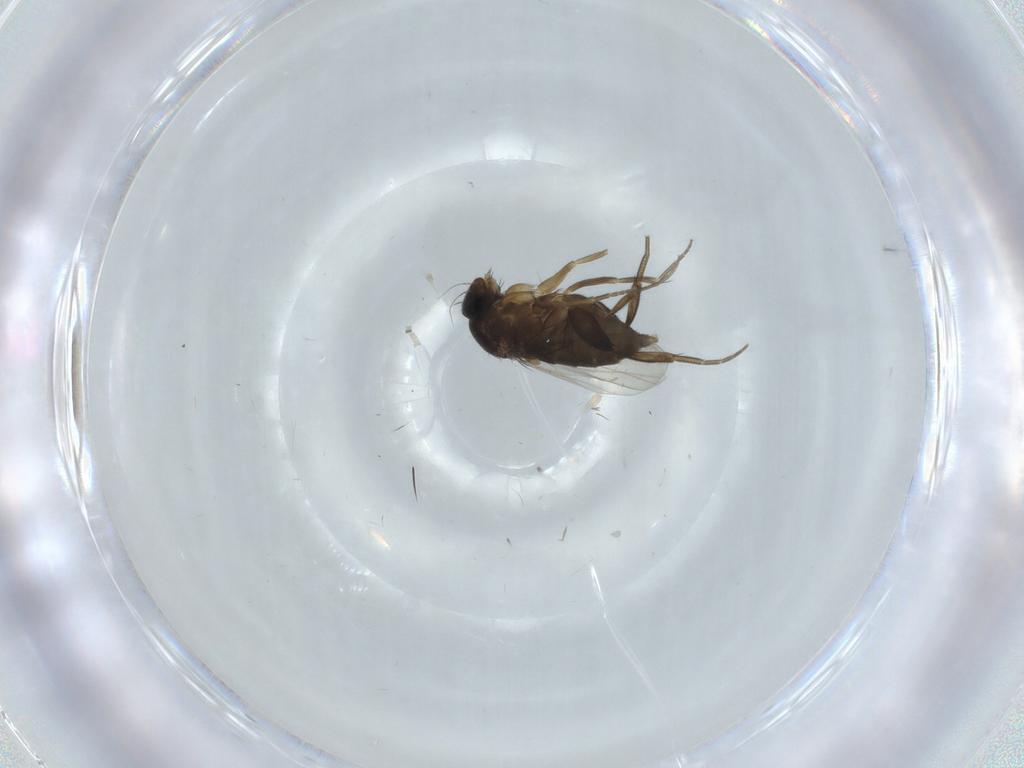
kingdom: Animalia
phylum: Arthropoda
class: Insecta
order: Diptera
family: Phoridae
